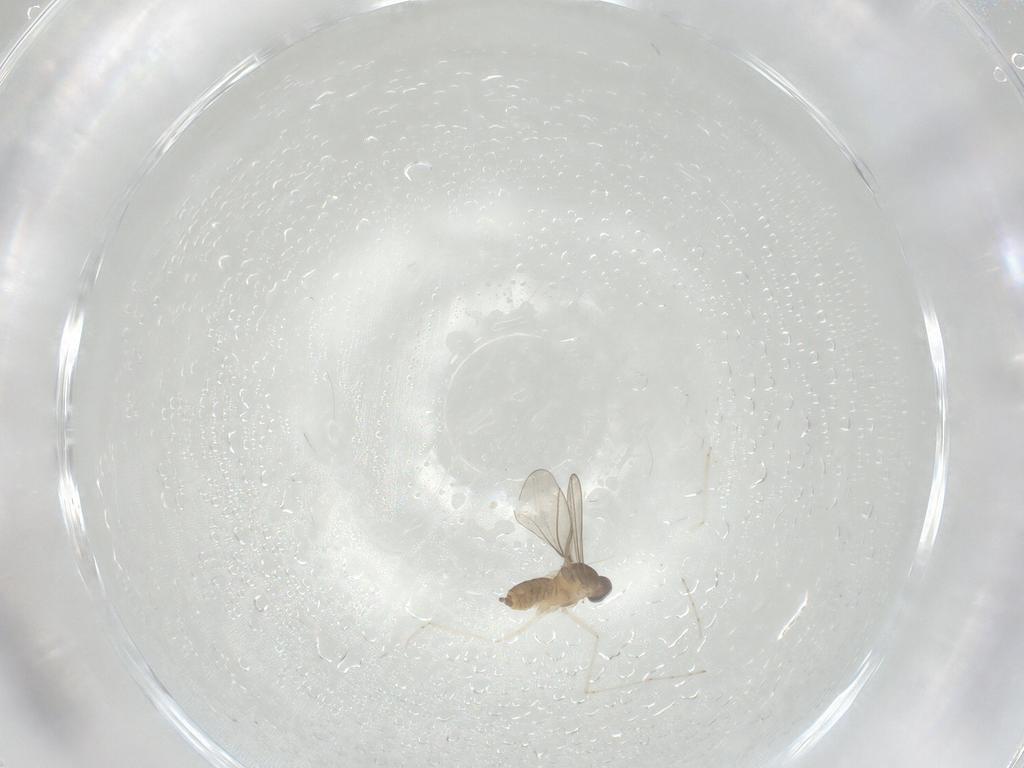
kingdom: Animalia
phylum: Arthropoda
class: Insecta
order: Diptera
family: Cecidomyiidae
